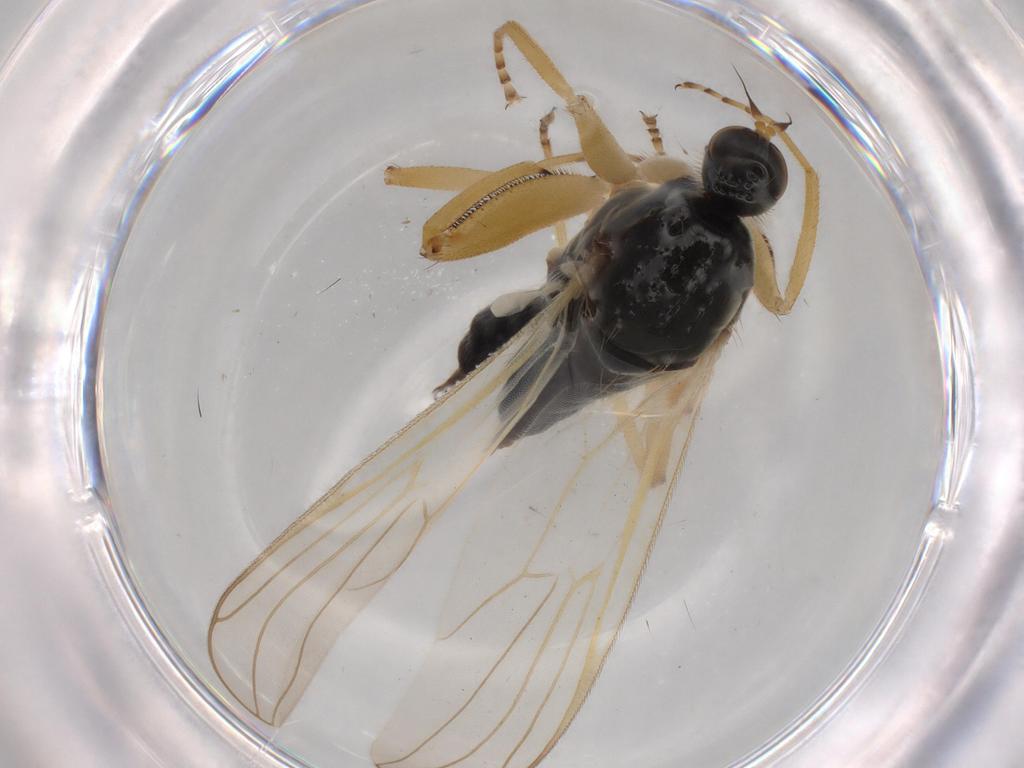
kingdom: Animalia
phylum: Arthropoda
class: Insecta
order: Diptera
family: Hybotidae
